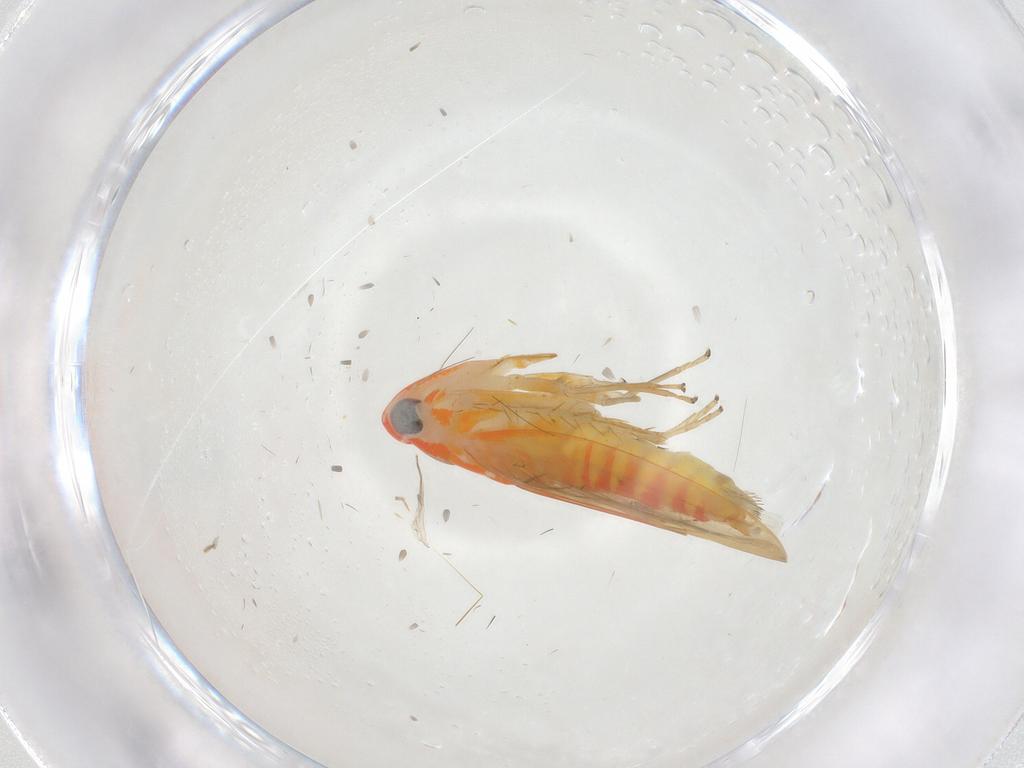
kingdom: Animalia
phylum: Arthropoda
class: Insecta
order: Hemiptera
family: Cicadellidae
